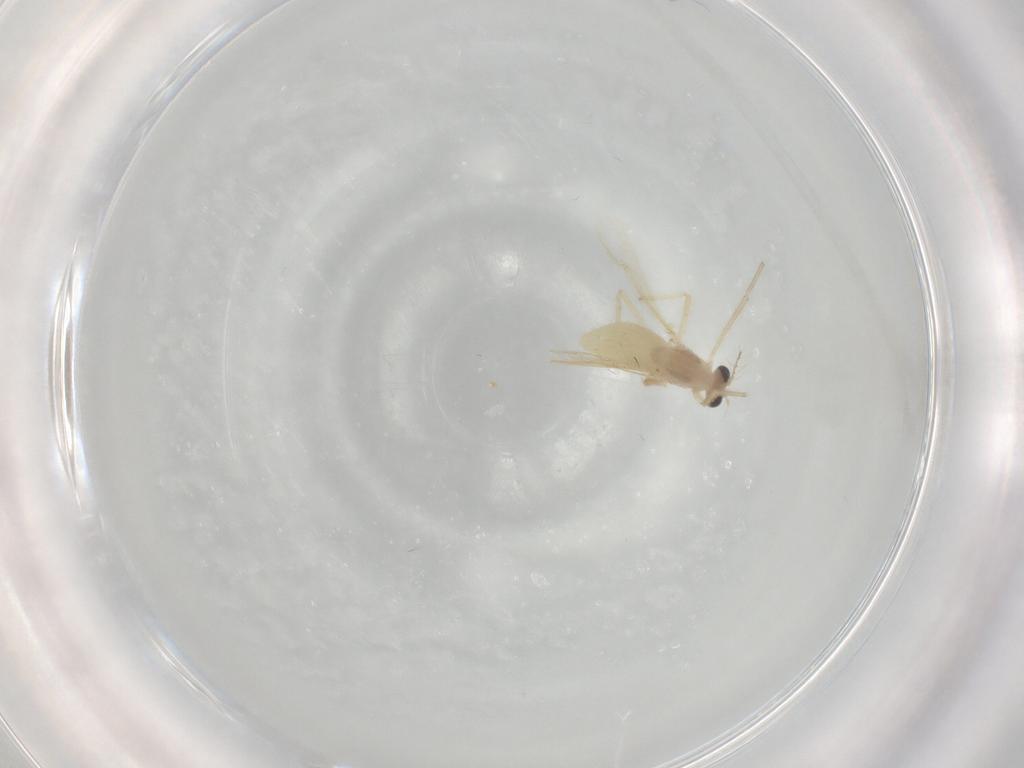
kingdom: Animalia
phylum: Arthropoda
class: Insecta
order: Diptera
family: Chironomidae
